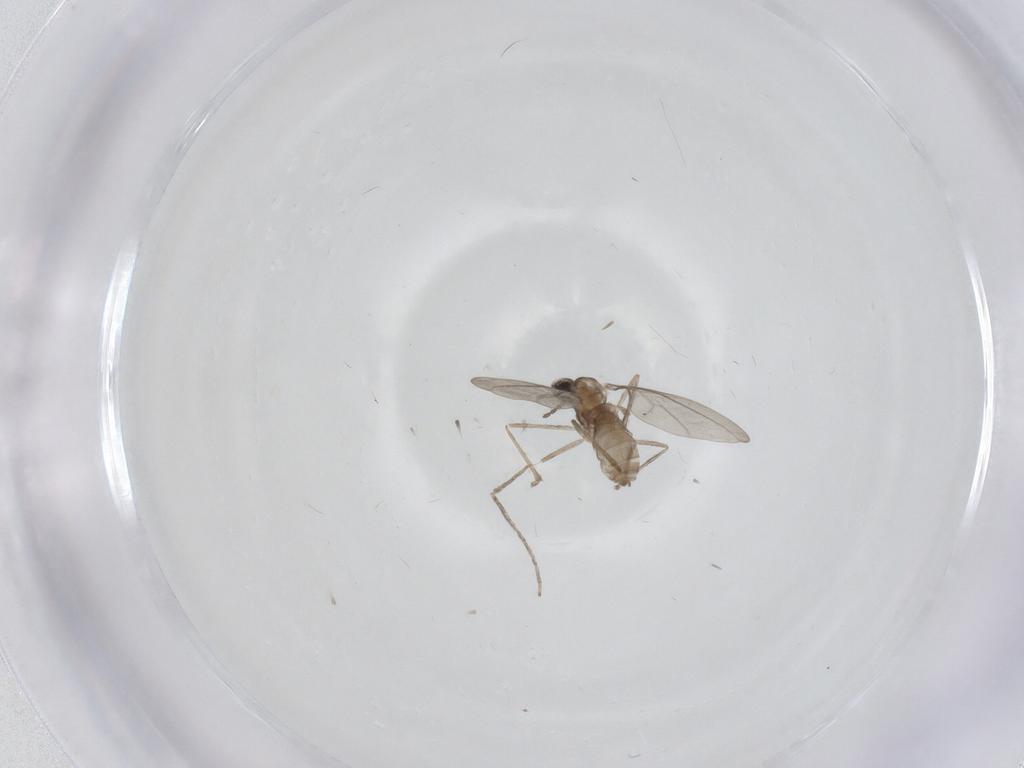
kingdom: Animalia
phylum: Arthropoda
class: Insecta
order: Diptera
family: Cecidomyiidae
